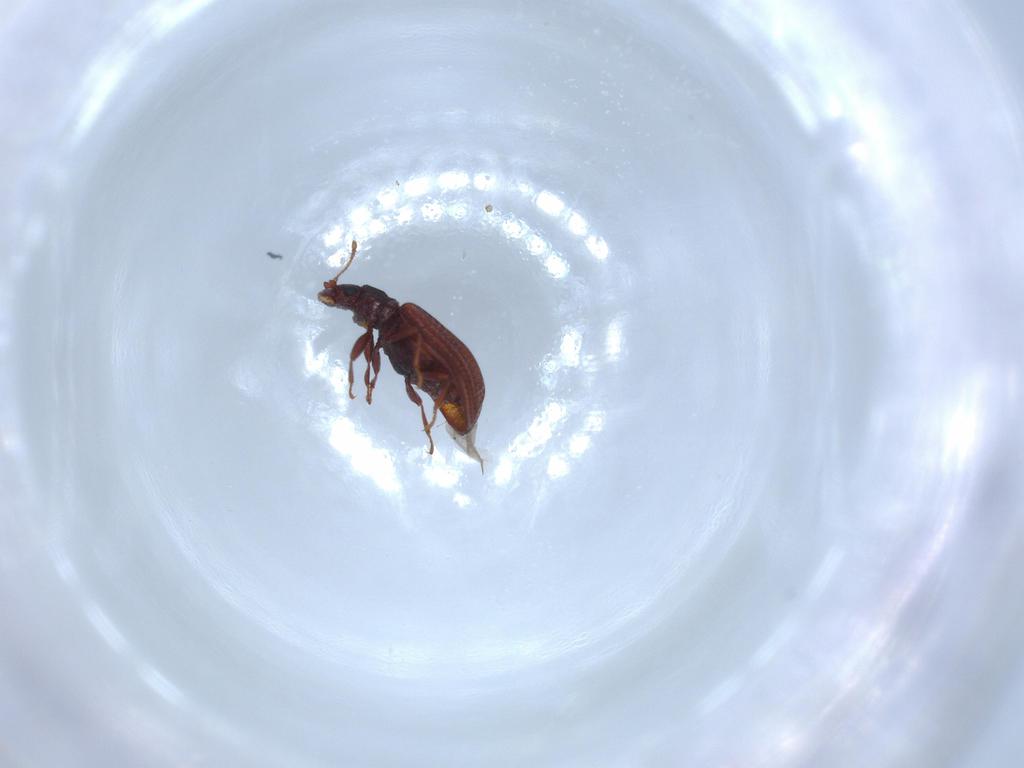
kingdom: Animalia
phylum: Arthropoda
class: Insecta
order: Coleoptera
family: Latridiidae
